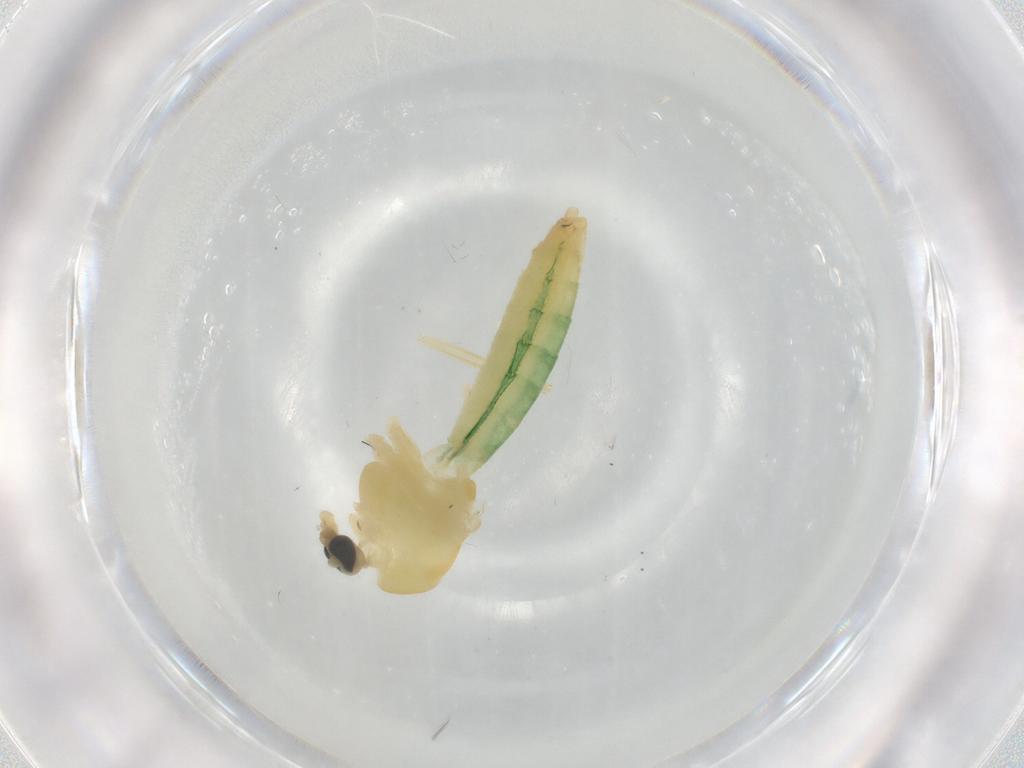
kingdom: Animalia
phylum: Arthropoda
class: Insecta
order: Diptera
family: Chironomidae
